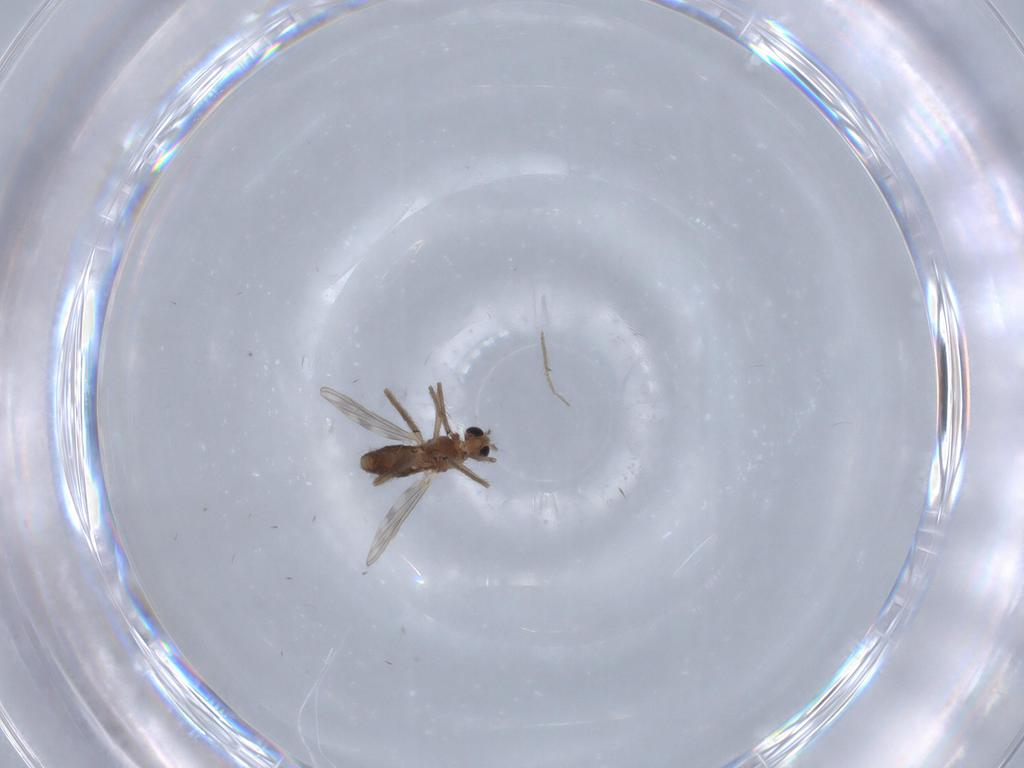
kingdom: Animalia
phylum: Arthropoda
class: Insecta
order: Diptera
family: Chironomidae
